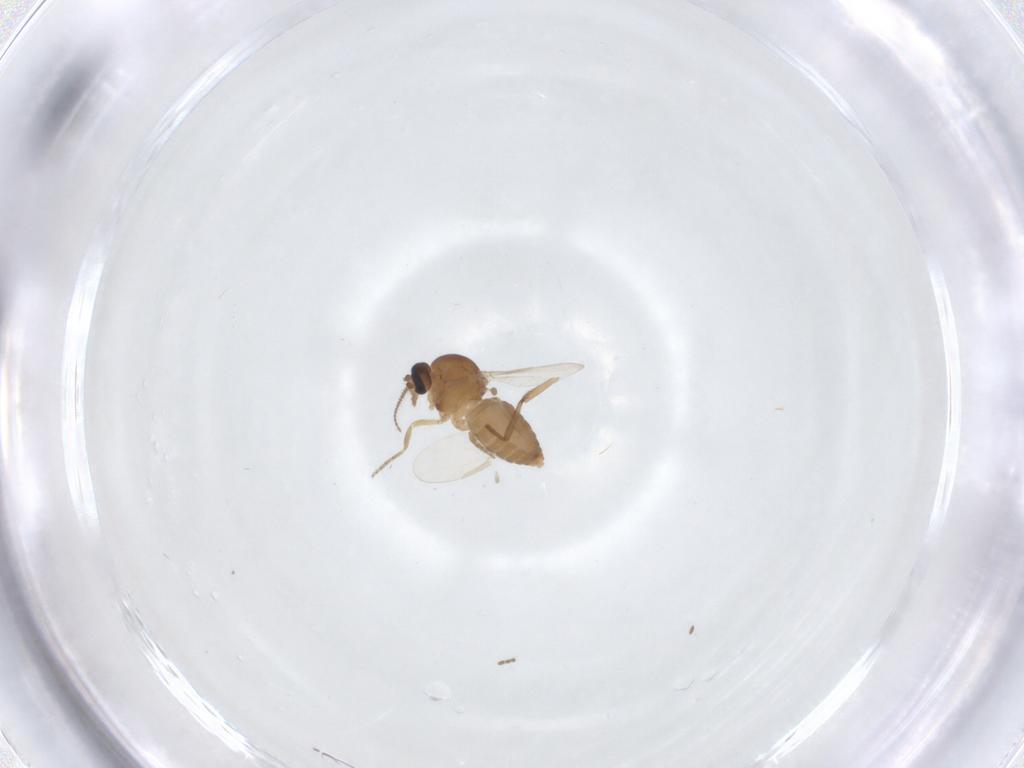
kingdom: Animalia
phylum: Arthropoda
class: Insecta
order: Diptera
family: Ceratopogonidae
